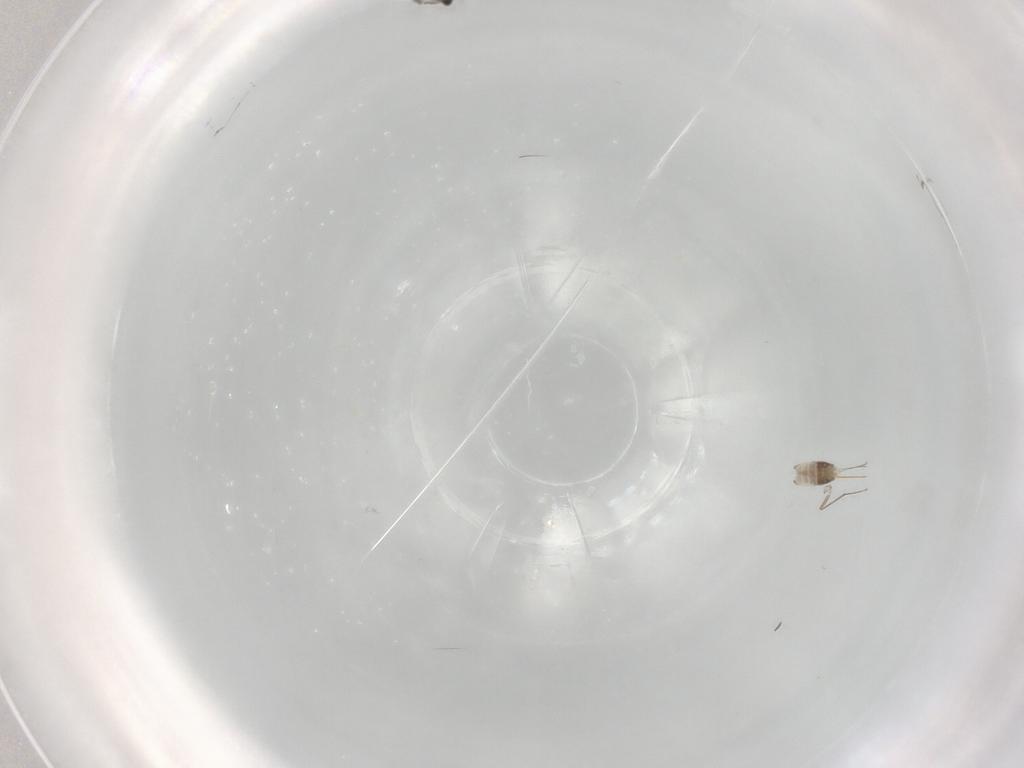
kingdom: Animalia
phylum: Arthropoda
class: Insecta
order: Hymenoptera
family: Mymaridae
